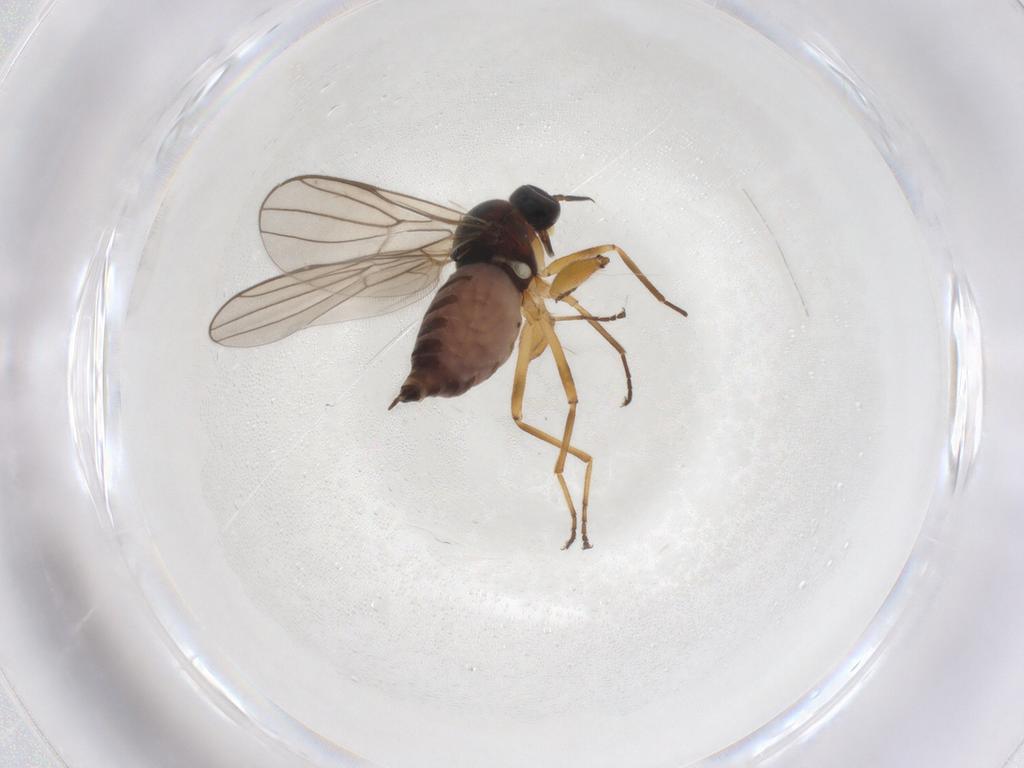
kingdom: Animalia
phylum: Arthropoda
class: Insecta
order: Diptera
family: Hybotidae
